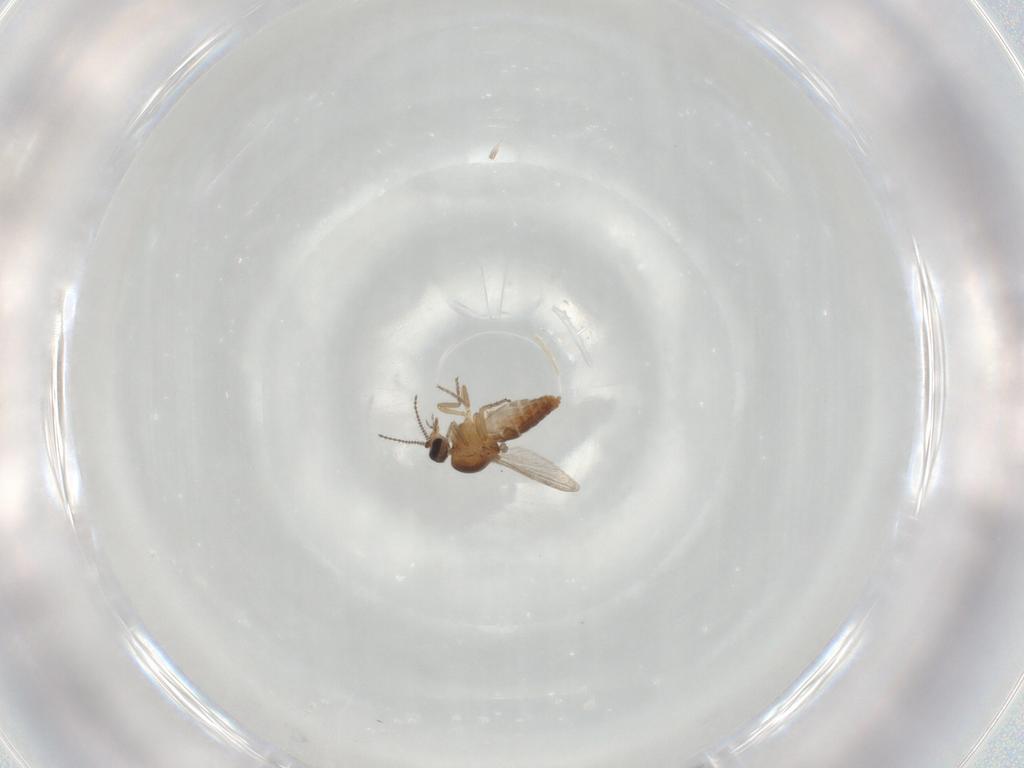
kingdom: Animalia
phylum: Arthropoda
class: Insecta
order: Diptera
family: Ceratopogonidae
